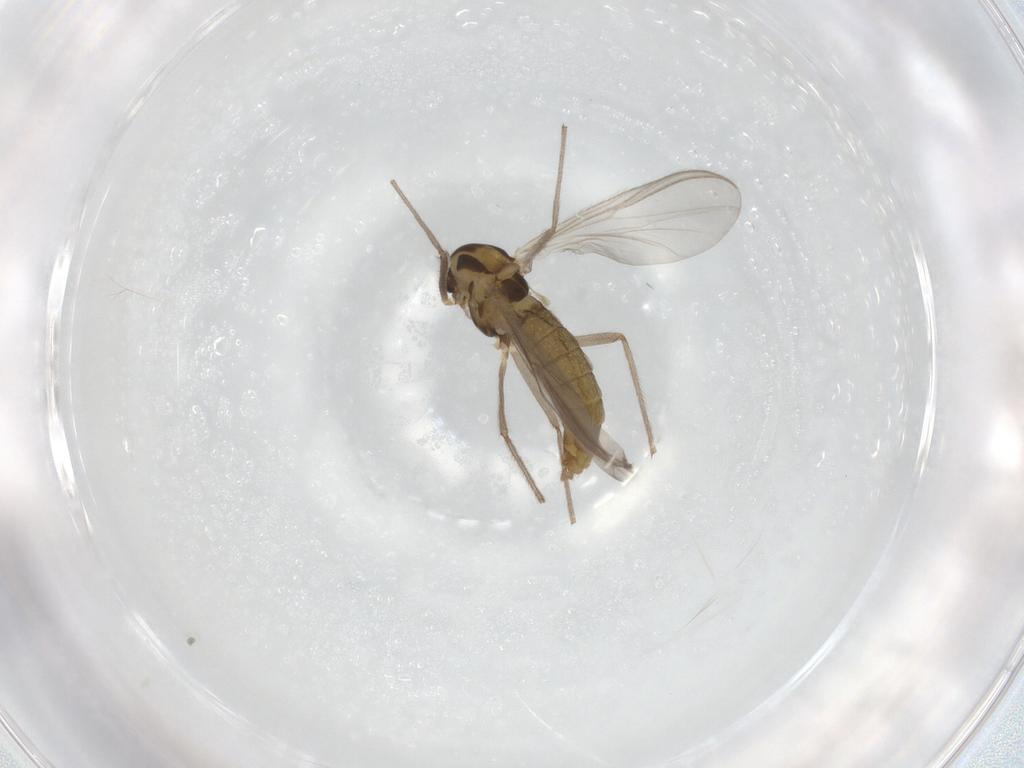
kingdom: Animalia
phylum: Arthropoda
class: Insecta
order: Diptera
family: Chironomidae
